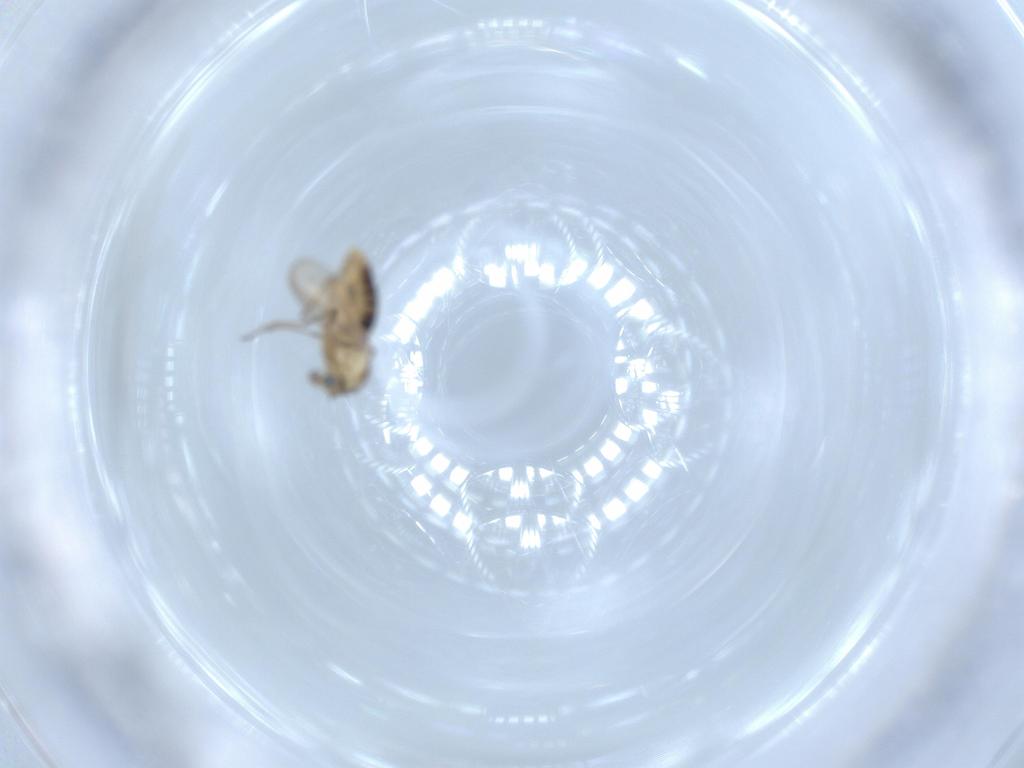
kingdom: Animalia
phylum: Arthropoda
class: Insecta
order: Diptera
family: Chironomidae
